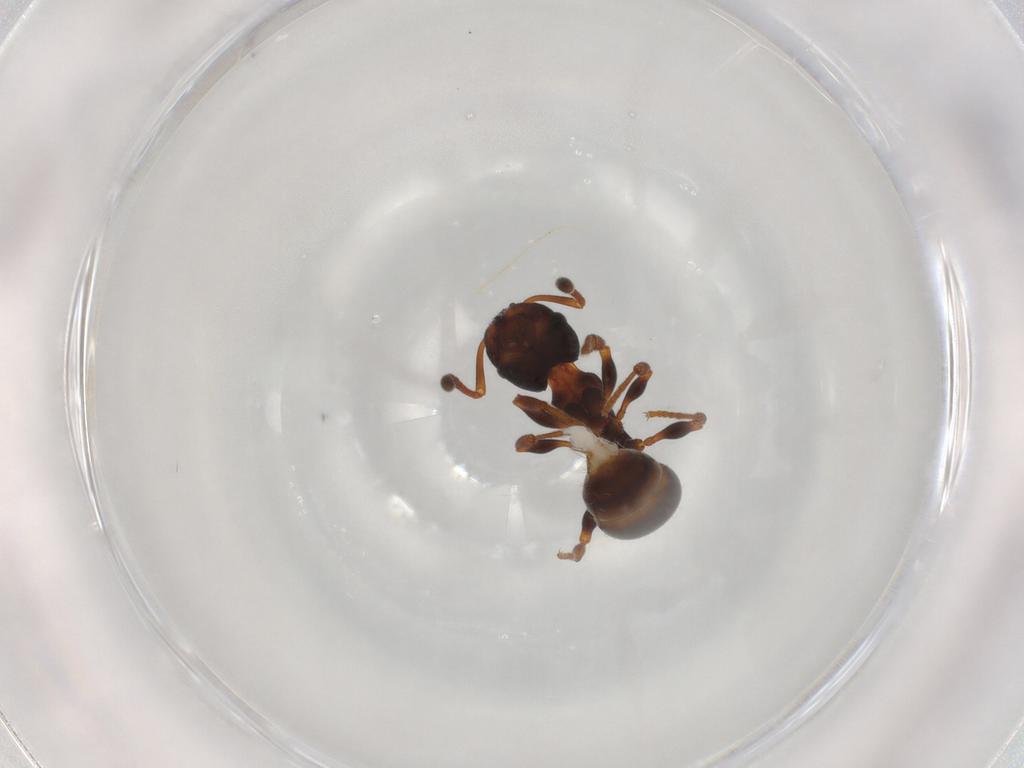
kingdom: Animalia
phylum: Arthropoda
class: Insecta
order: Hymenoptera
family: Formicidae
